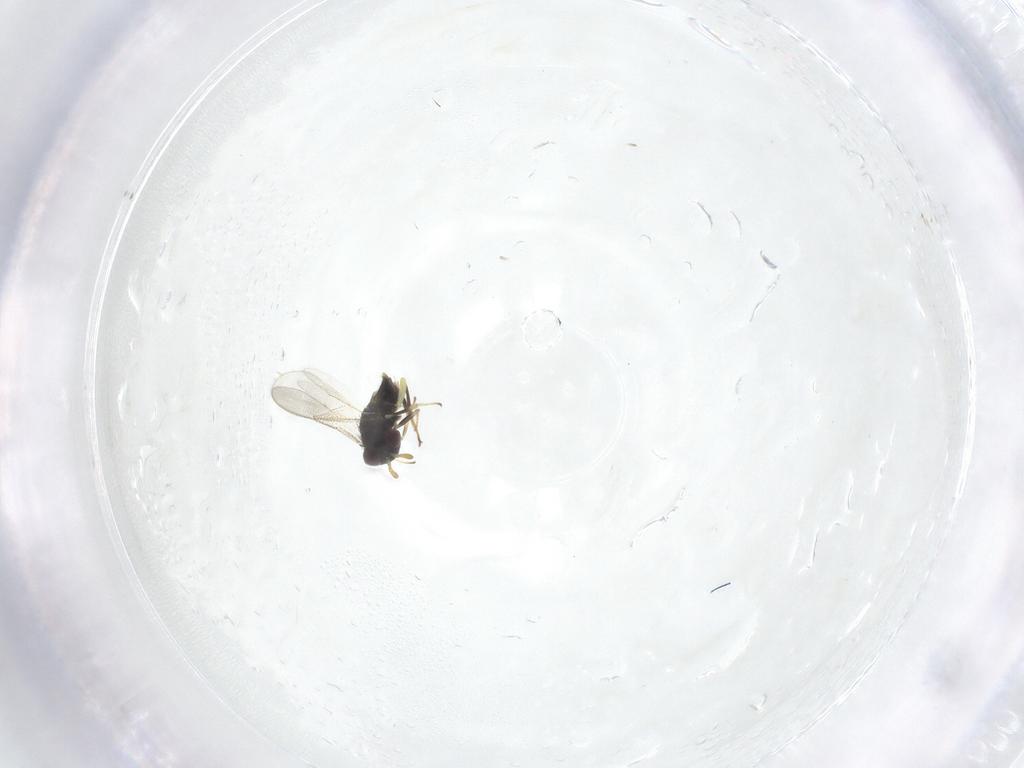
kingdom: Animalia
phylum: Arthropoda
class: Insecta
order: Hymenoptera
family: Aphelinidae
